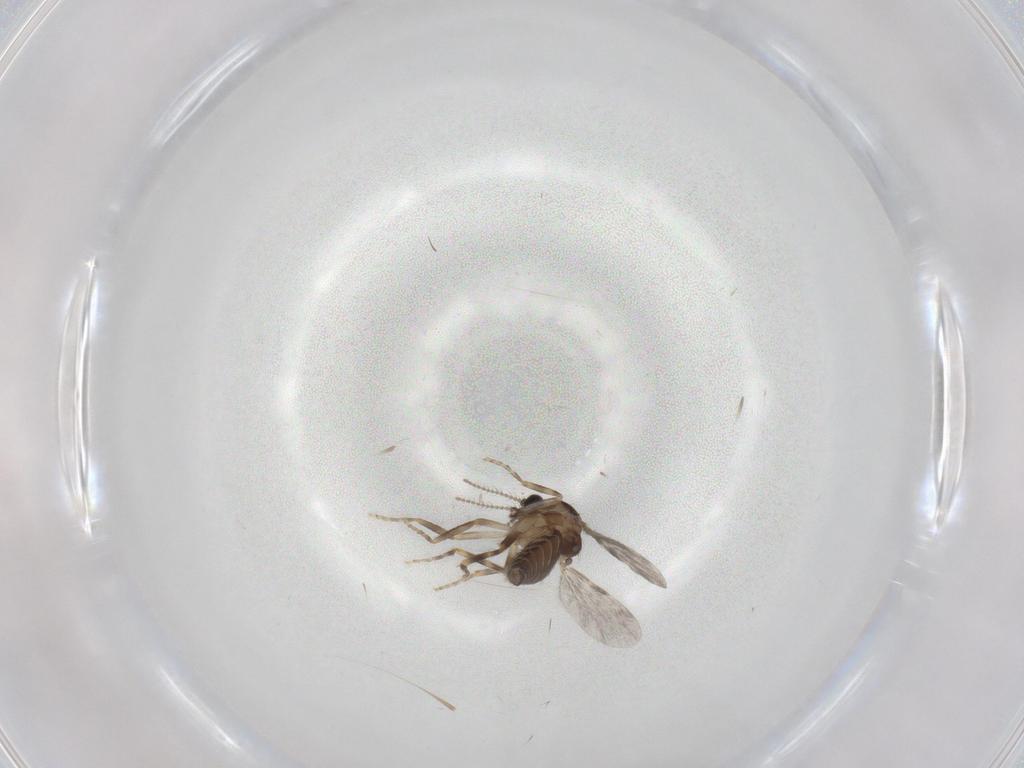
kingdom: Animalia
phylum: Arthropoda
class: Insecta
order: Diptera
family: Ceratopogonidae
